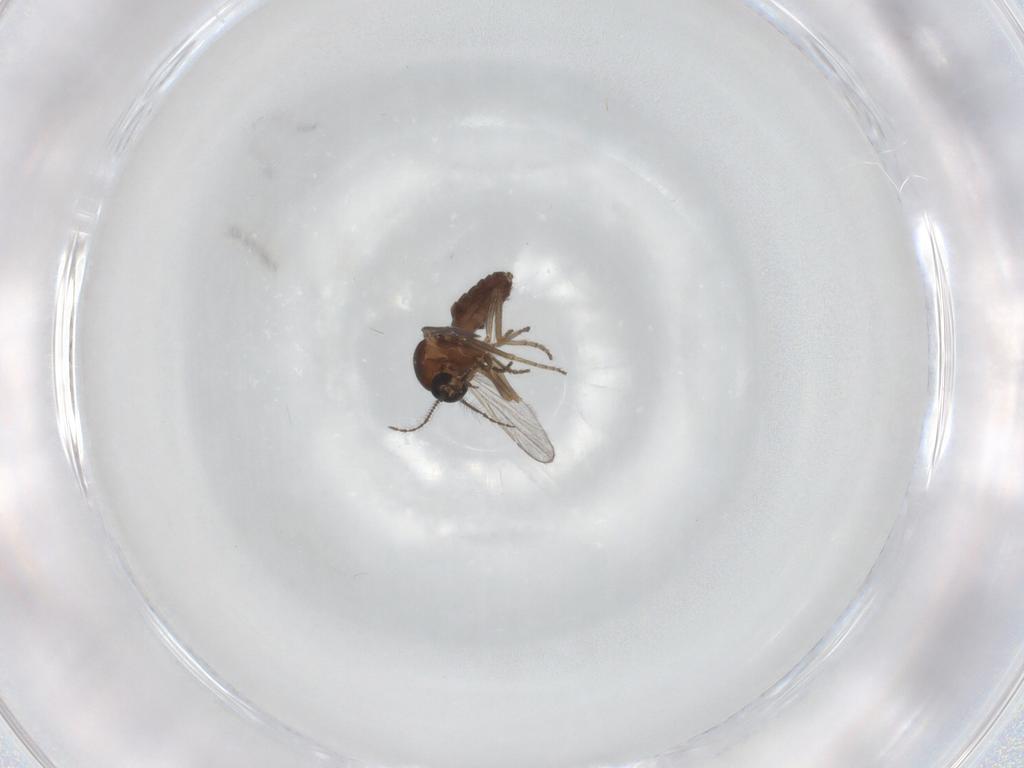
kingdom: Animalia
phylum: Arthropoda
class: Insecta
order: Diptera
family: Ceratopogonidae
